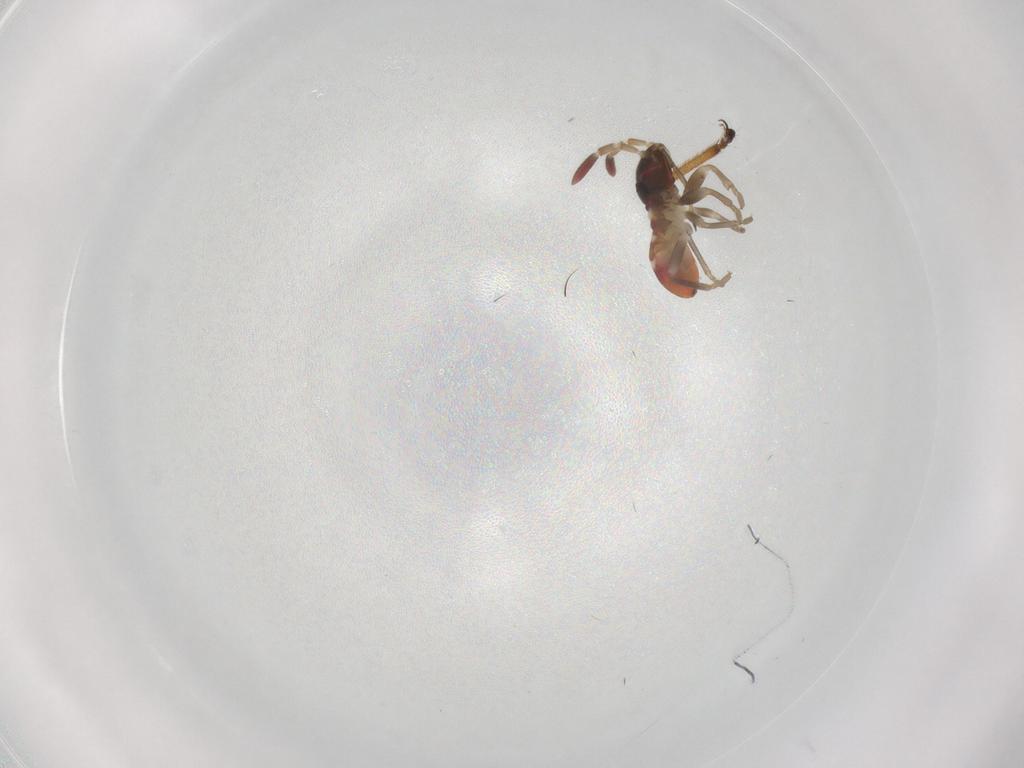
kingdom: Animalia
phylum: Arthropoda
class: Insecta
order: Hemiptera
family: Rhyparochromidae
